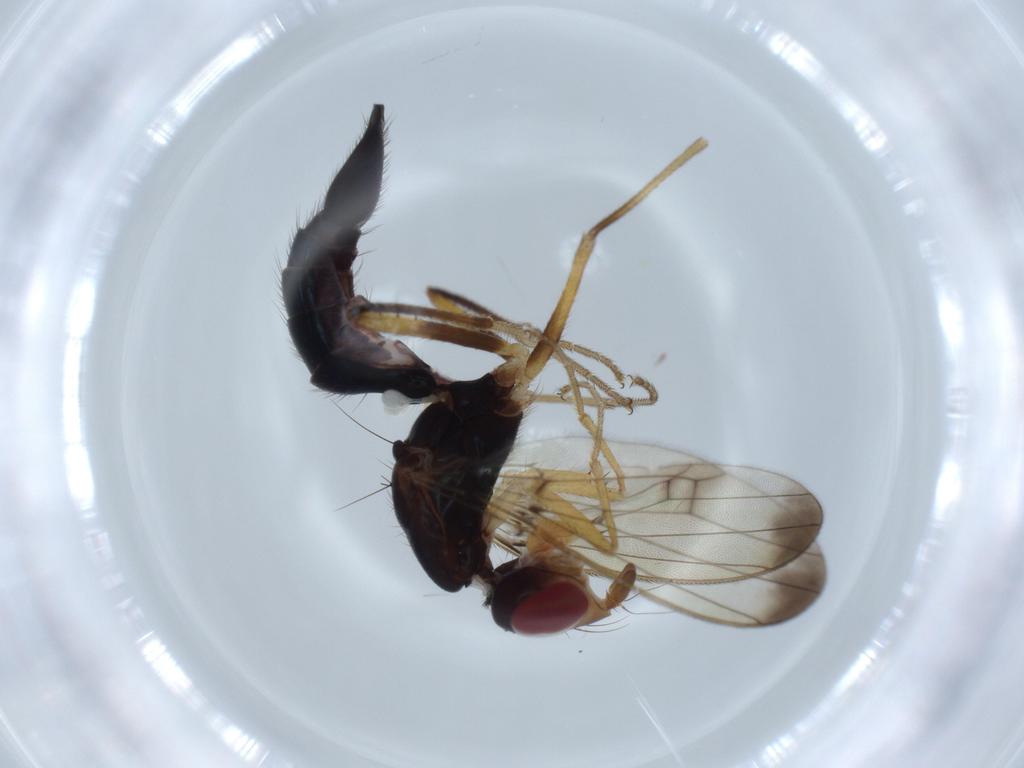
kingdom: Animalia
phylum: Arthropoda
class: Insecta
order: Diptera
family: Ceratopogonidae
